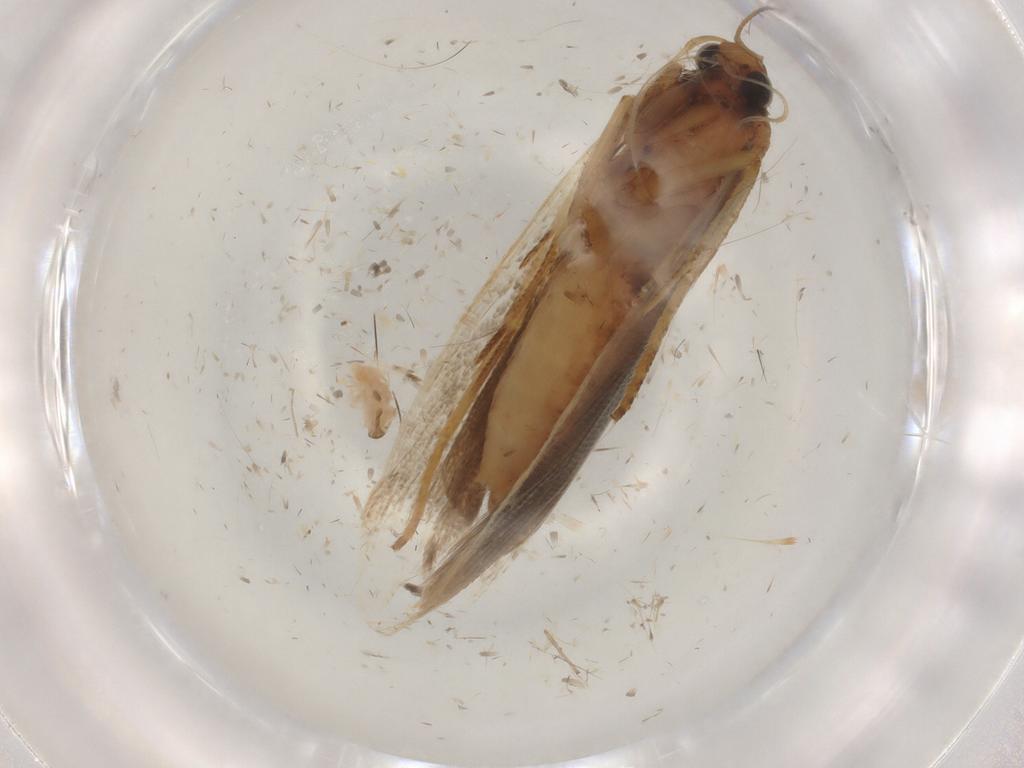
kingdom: Animalia
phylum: Arthropoda
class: Insecta
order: Lepidoptera
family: Gelechiidae
